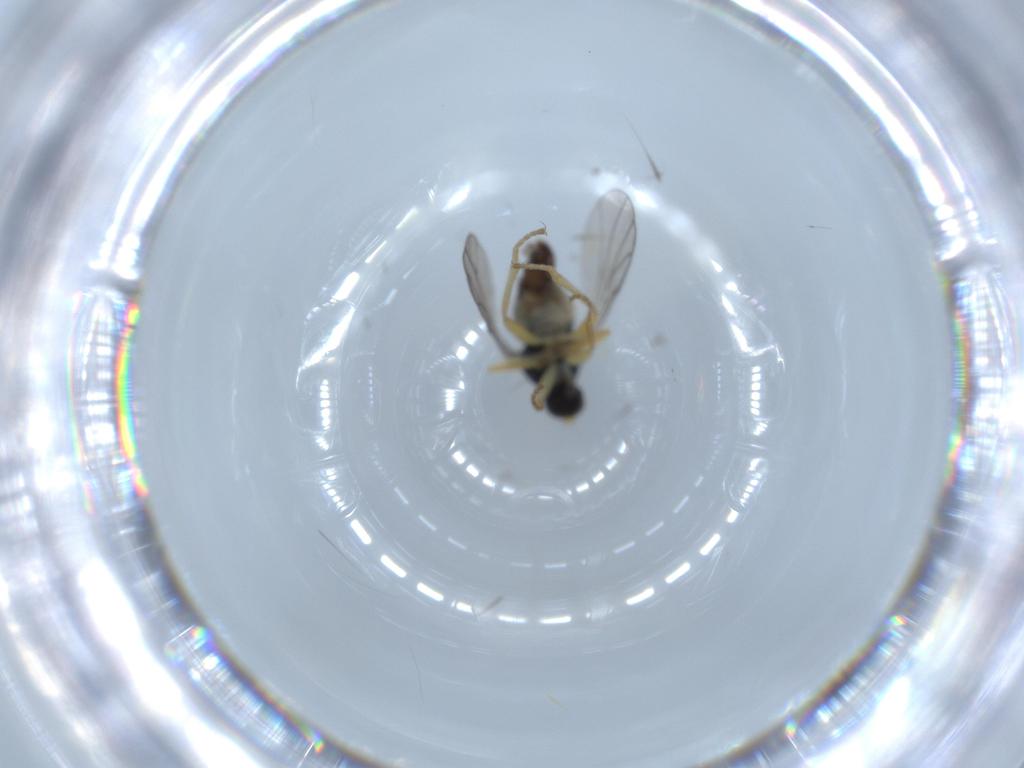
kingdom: Animalia
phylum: Arthropoda
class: Insecta
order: Diptera
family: Hybotidae
